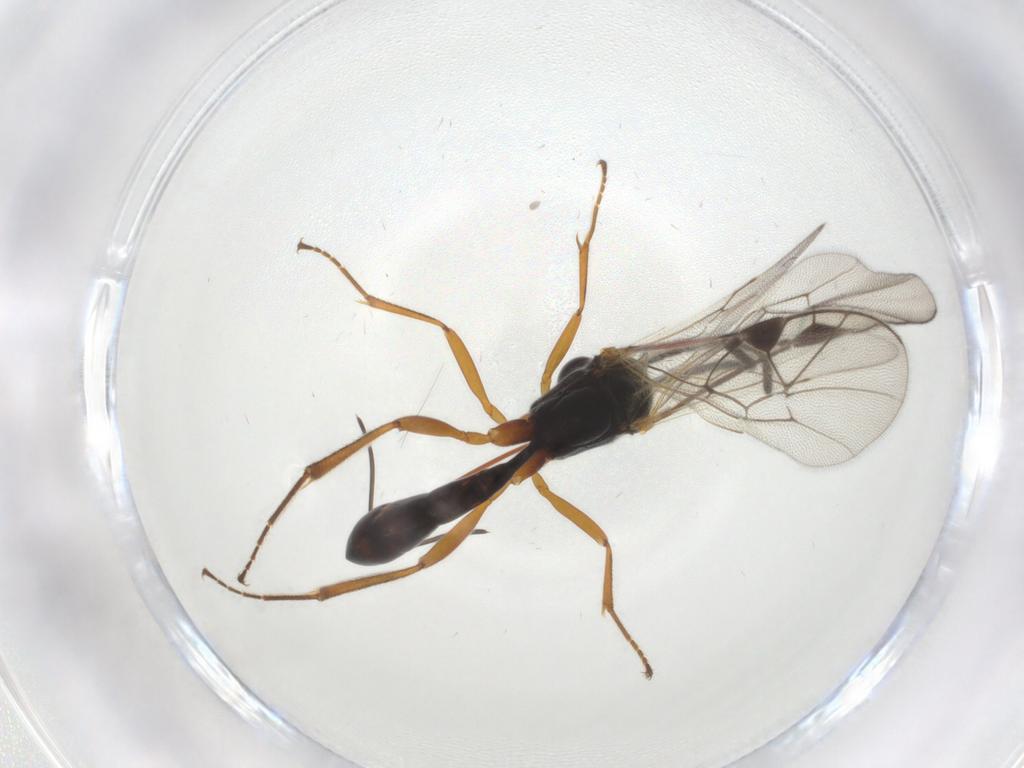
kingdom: Animalia
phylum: Arthropoda
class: Insecta
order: Hymenoptera
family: Ichneumonidae
